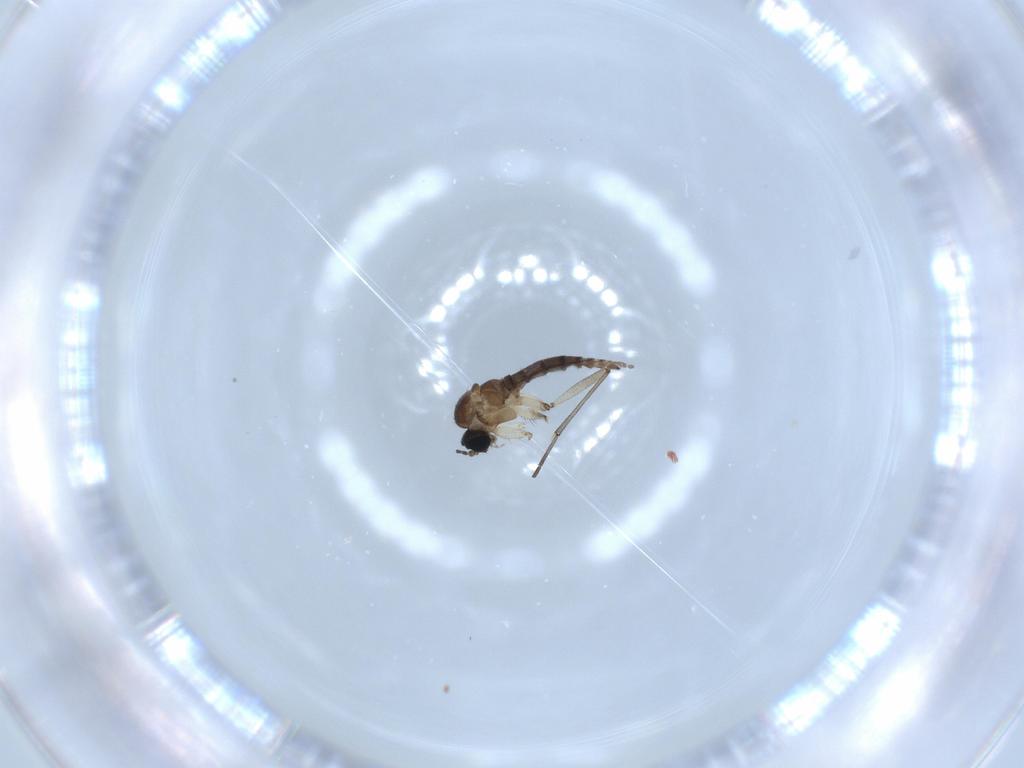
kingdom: Animalia
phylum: Arthropoda
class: Insecta
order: Diptera
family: Sciaridae
